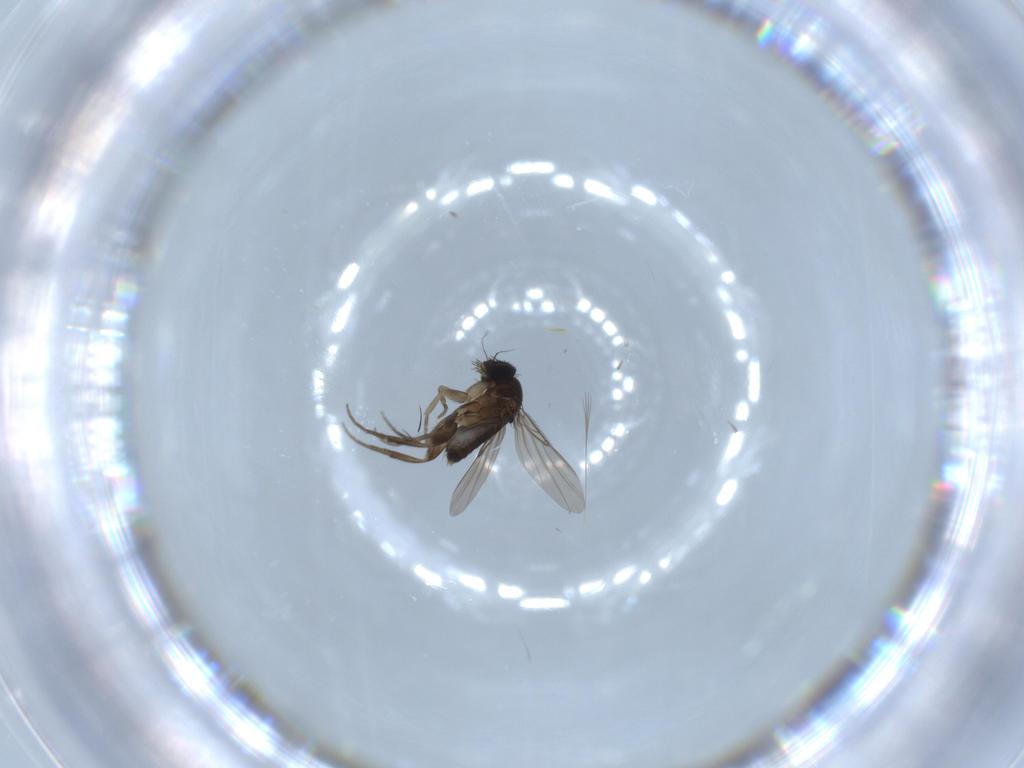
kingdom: Animalia
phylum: Arthropoda
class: Insecta
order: Diptera
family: Phoridae
